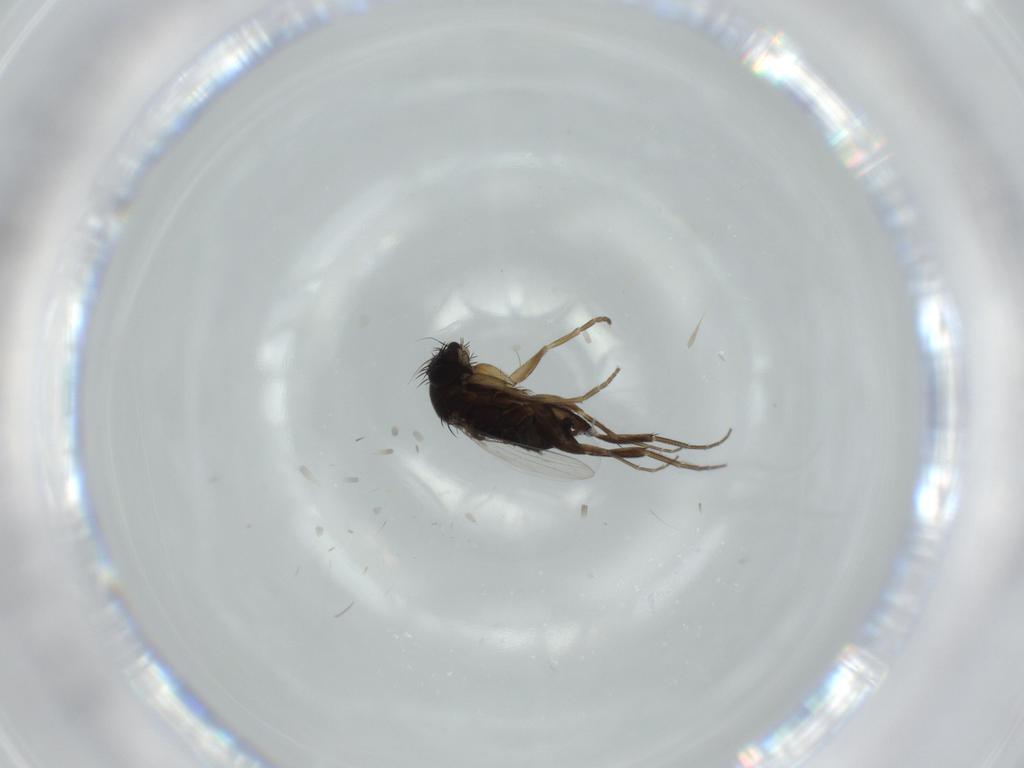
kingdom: Animalia
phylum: Arthropoda
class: Insecta
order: Diptera
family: Phoridae
